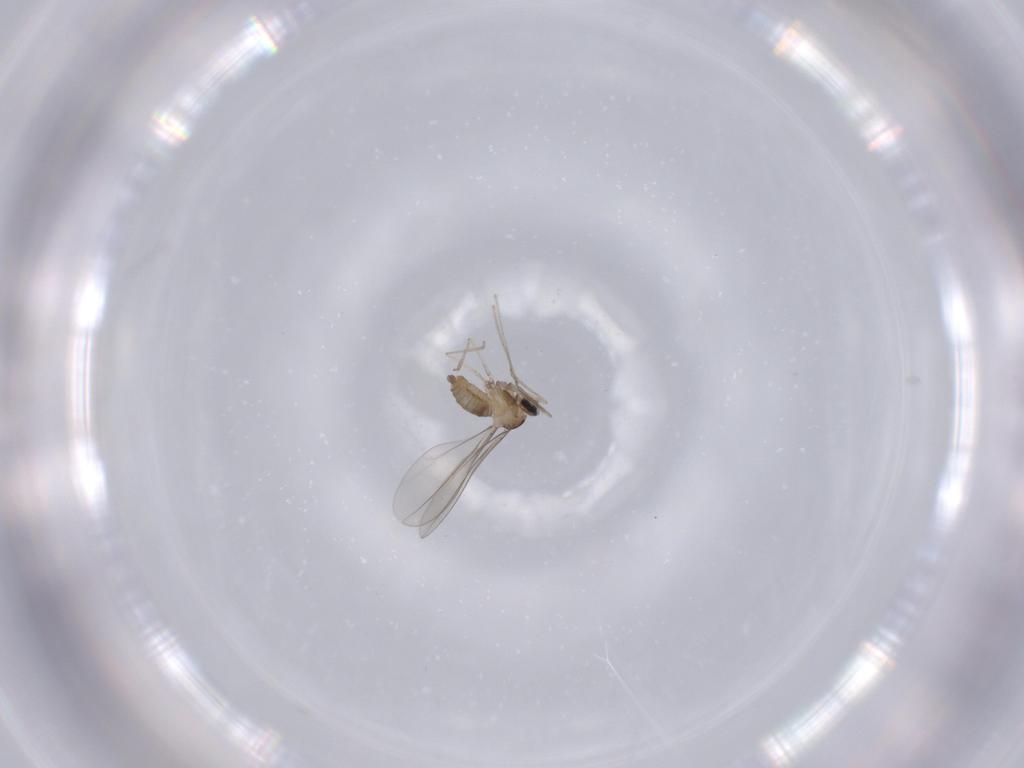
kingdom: Animalia
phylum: Arthropoda
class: Insecta
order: Diptera
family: Cecidomyiidae
